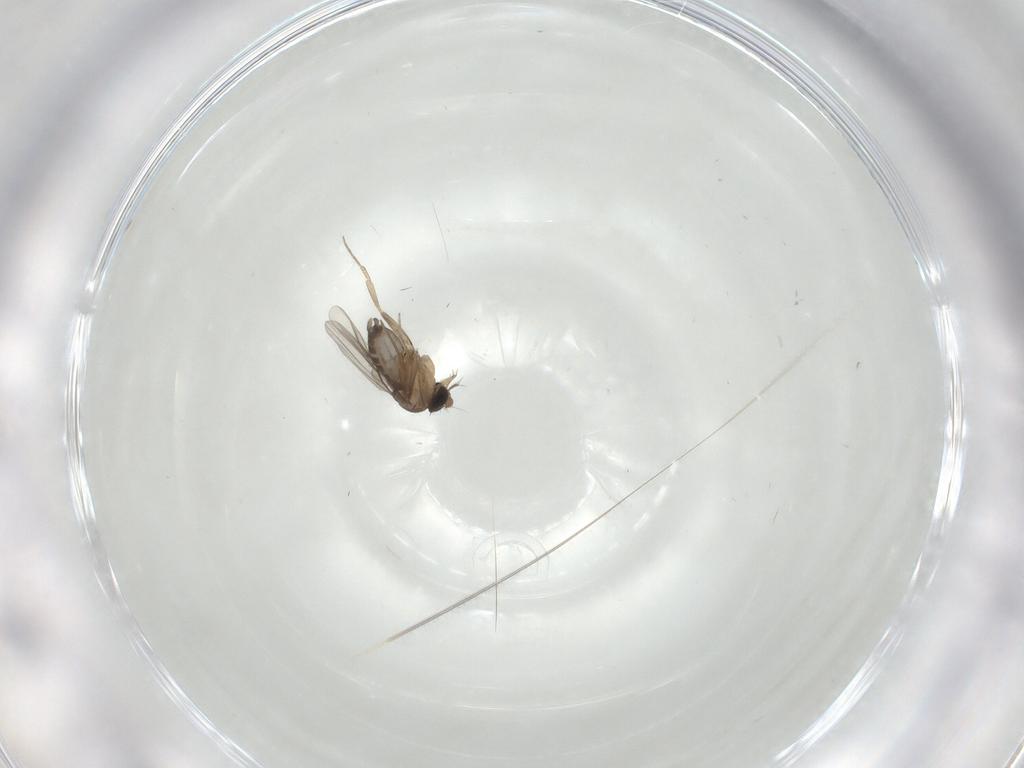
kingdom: Animalia
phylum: Arthropoda
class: Insecta
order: Diptera
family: Phoridae
